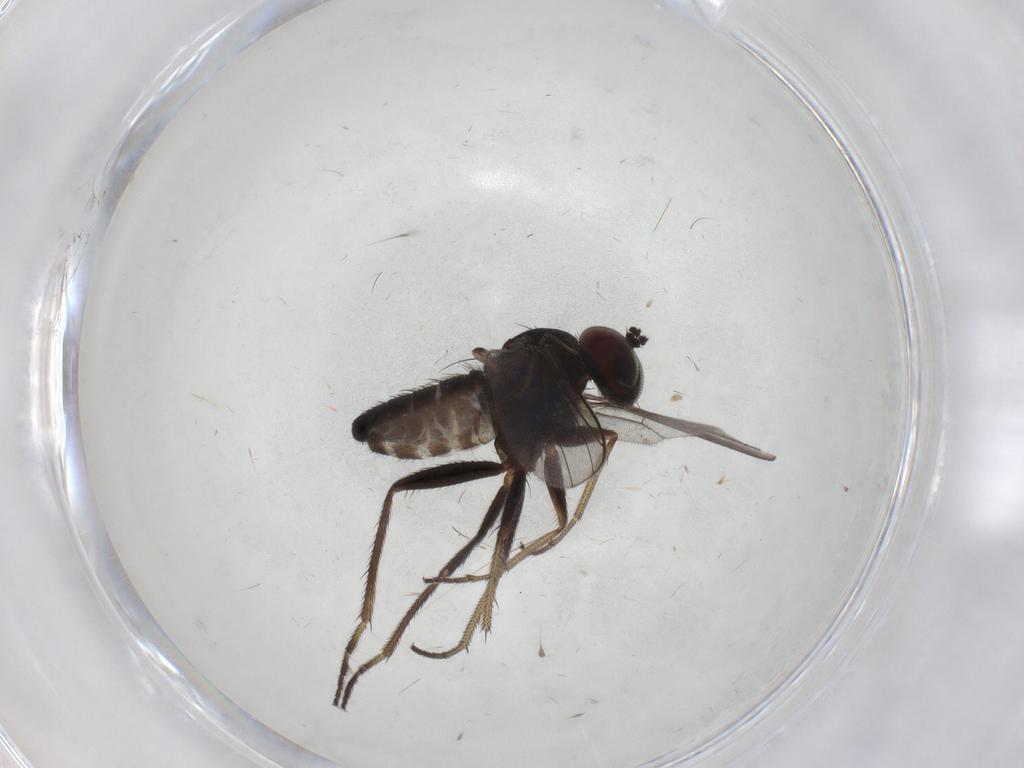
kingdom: Animalia
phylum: Arthropoda
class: Insecta
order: Diptera
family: Dolichopodidae
